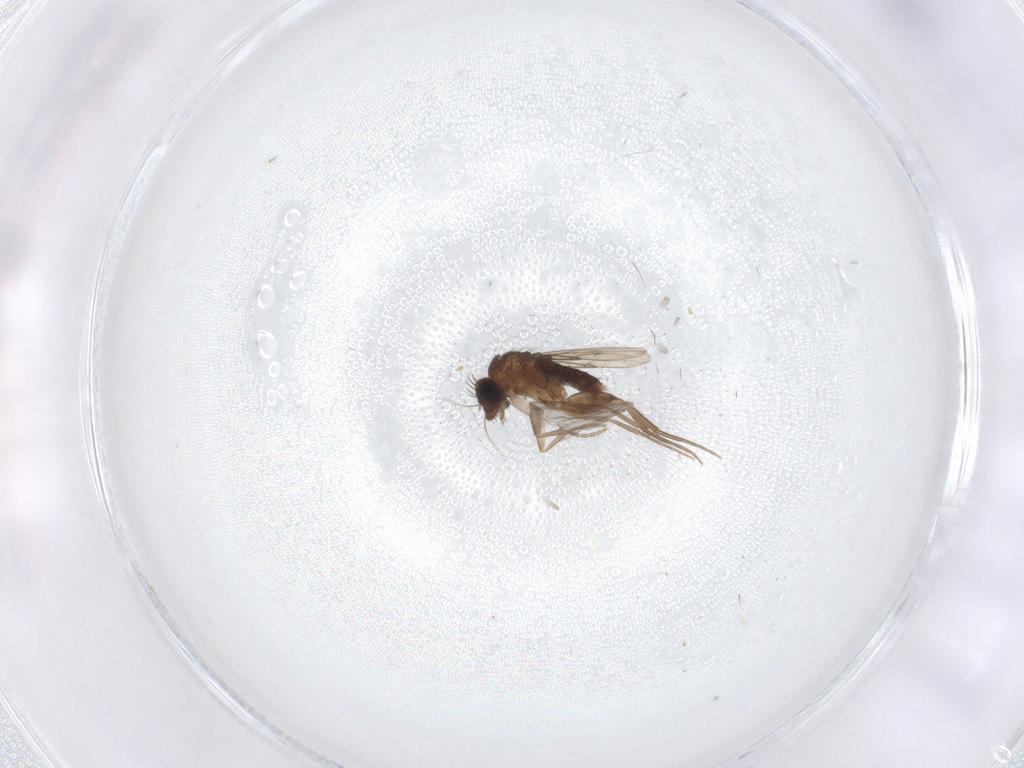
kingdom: Animalia
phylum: Arthropoda
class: Insecta
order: Diptera
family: Phoridae
